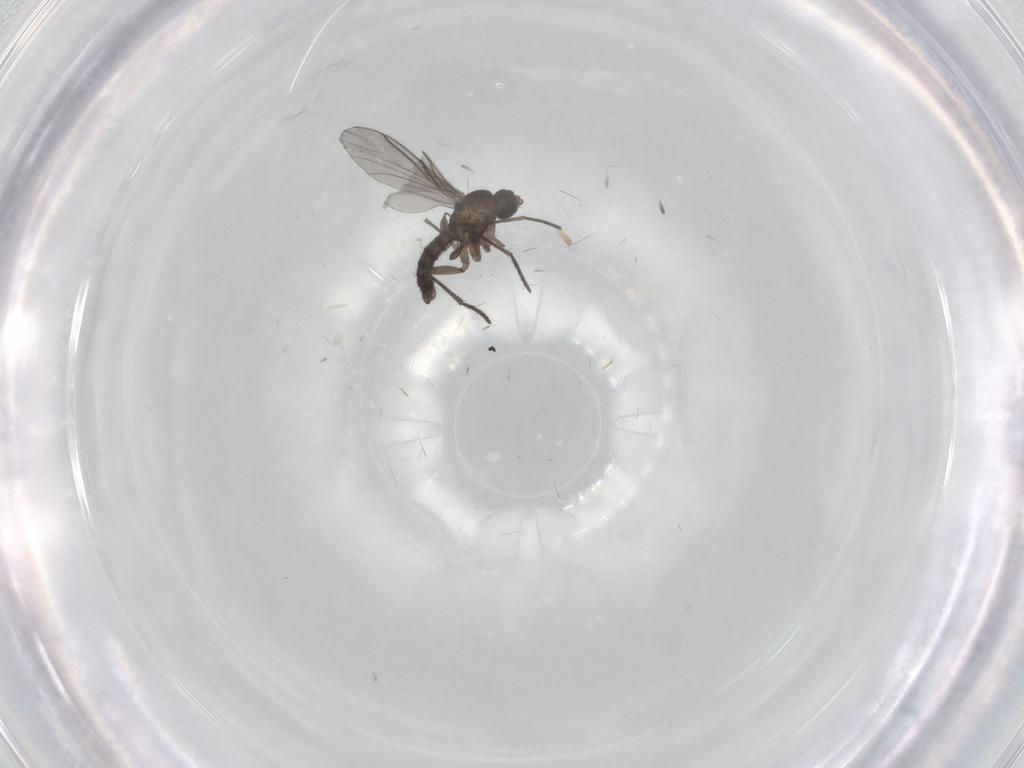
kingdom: Animalia
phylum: Arthropoda
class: Insecta
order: Diptera
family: Phoridae
